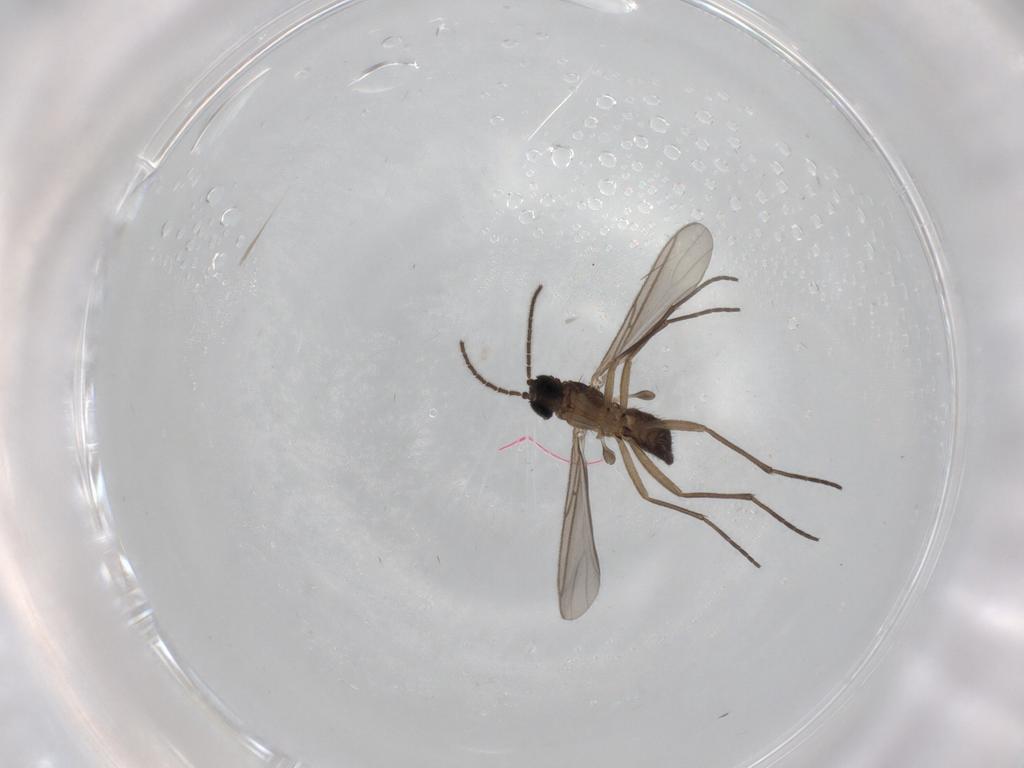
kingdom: Animalia
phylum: Arthropoda
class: Insecta
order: Diptera
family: Sciaridae
